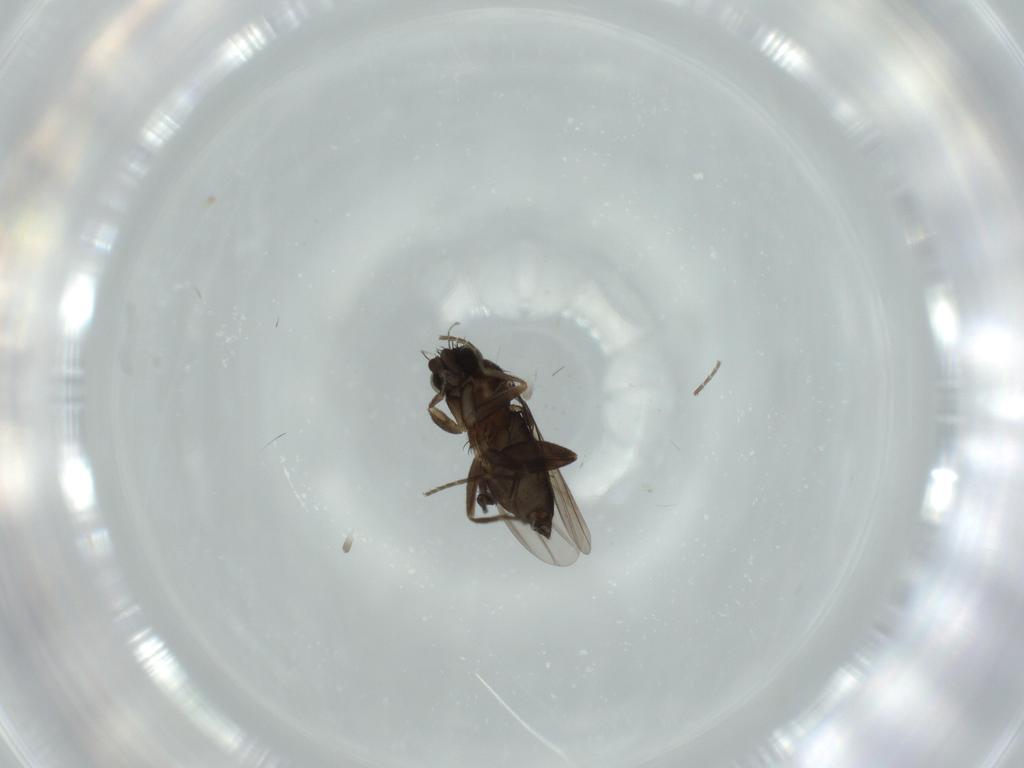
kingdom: Animalia
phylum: Arthropoda
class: Insecta
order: Diptera
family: Phoridae
